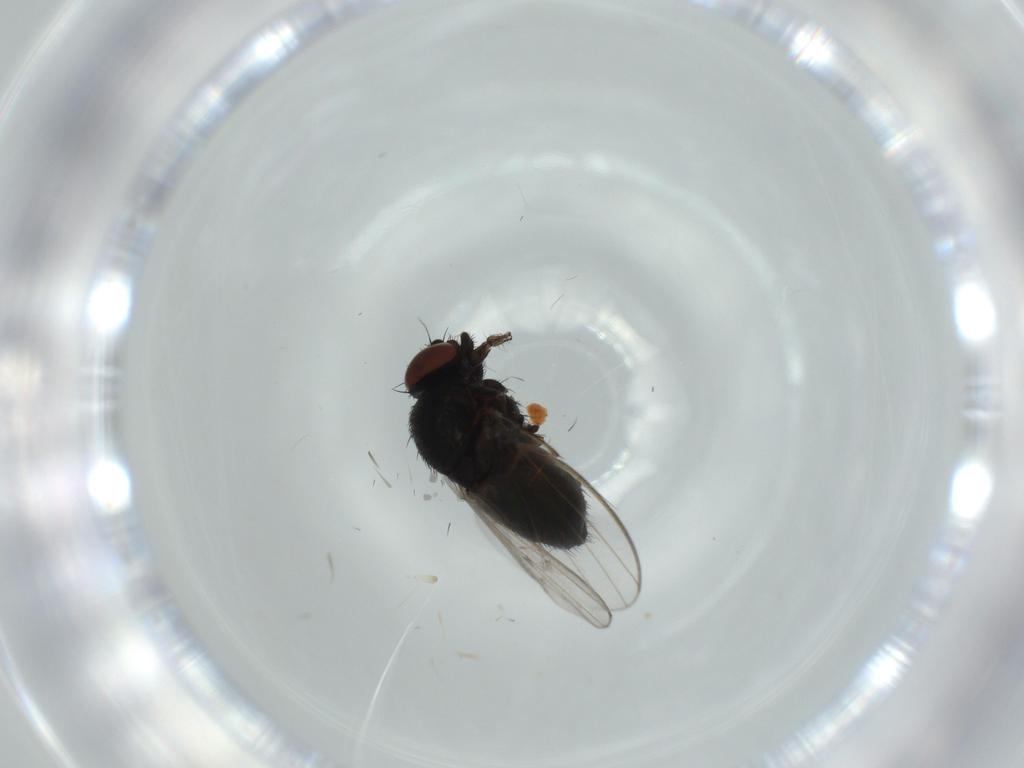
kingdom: Animalia
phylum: Arthropoda
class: Insecta
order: Diptera
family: Milichiidae
